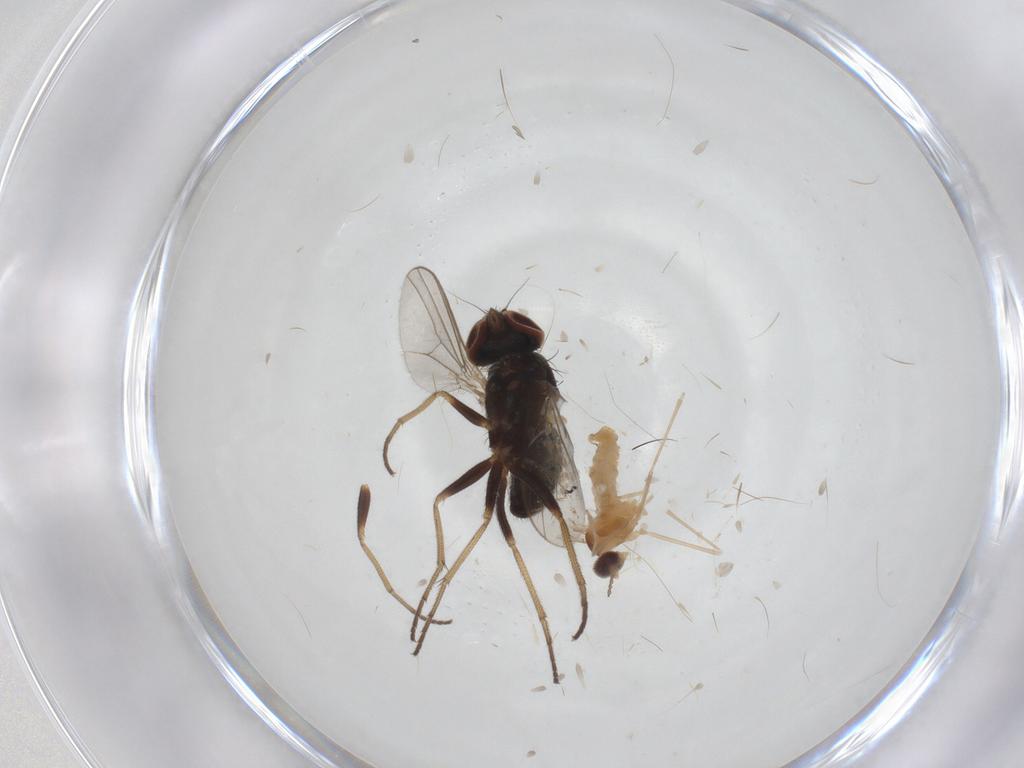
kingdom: Animalia
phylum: Arthropoda
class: Insecta
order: Diptera
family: Cecidomyiidae
